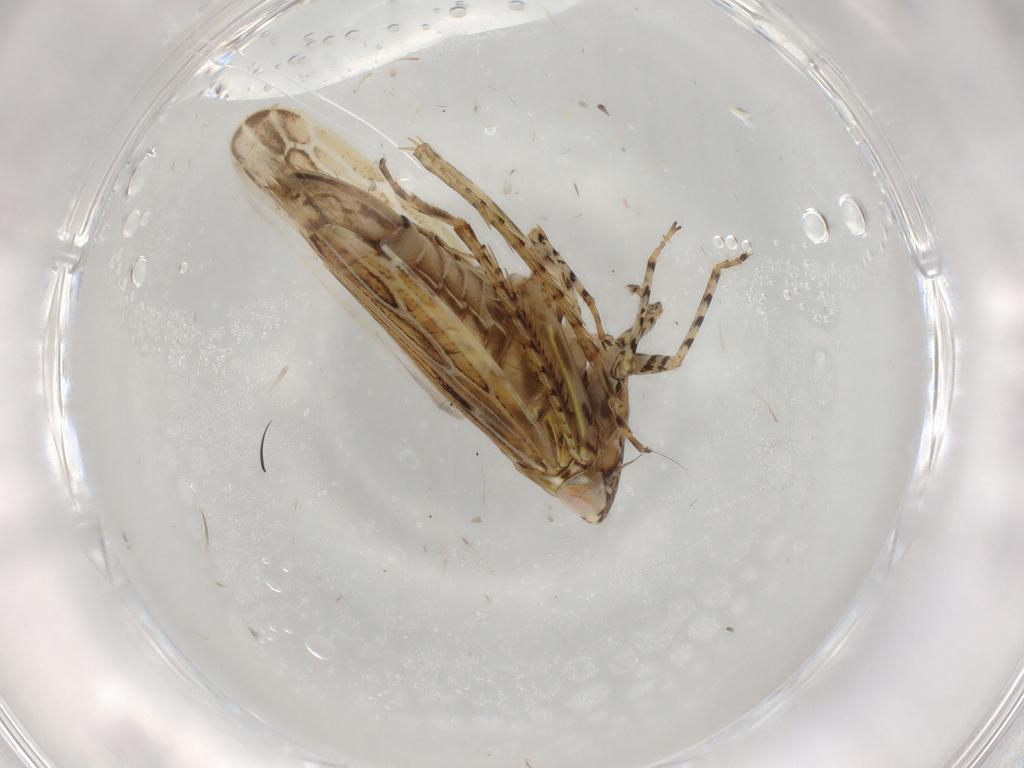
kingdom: Animalia
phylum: Arthropoda
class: Insecta
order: Hemiptera
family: Cicadellidae
